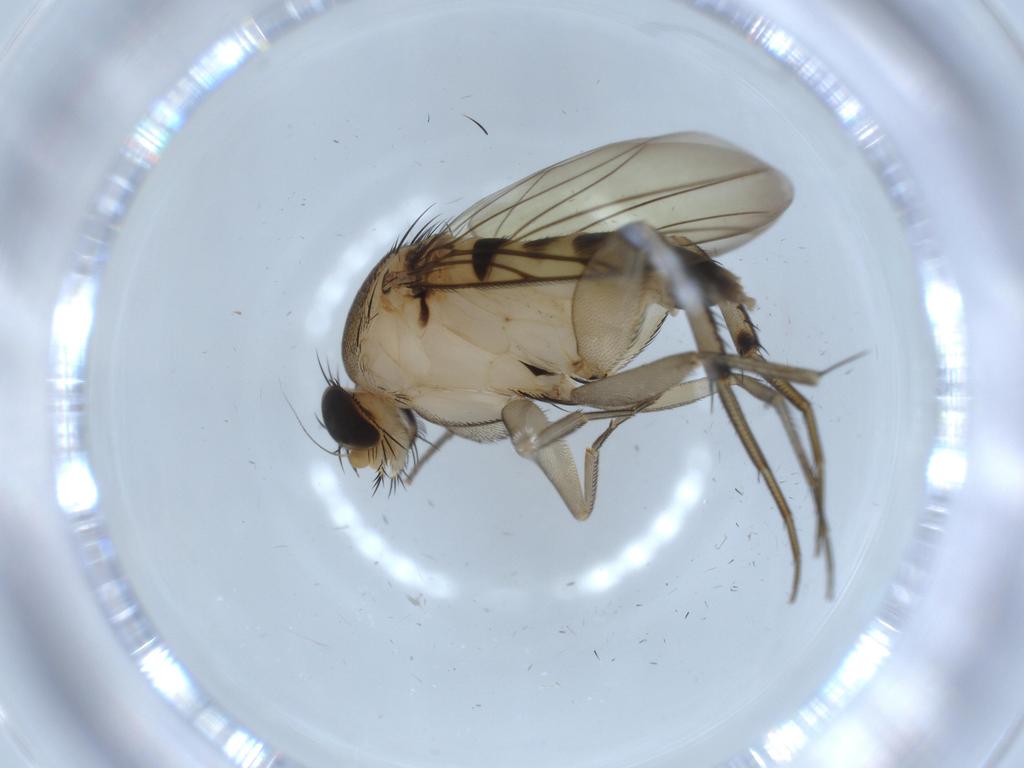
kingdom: Animalia
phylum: Arthropoda
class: Insecta
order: Diptera
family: Phoridae
